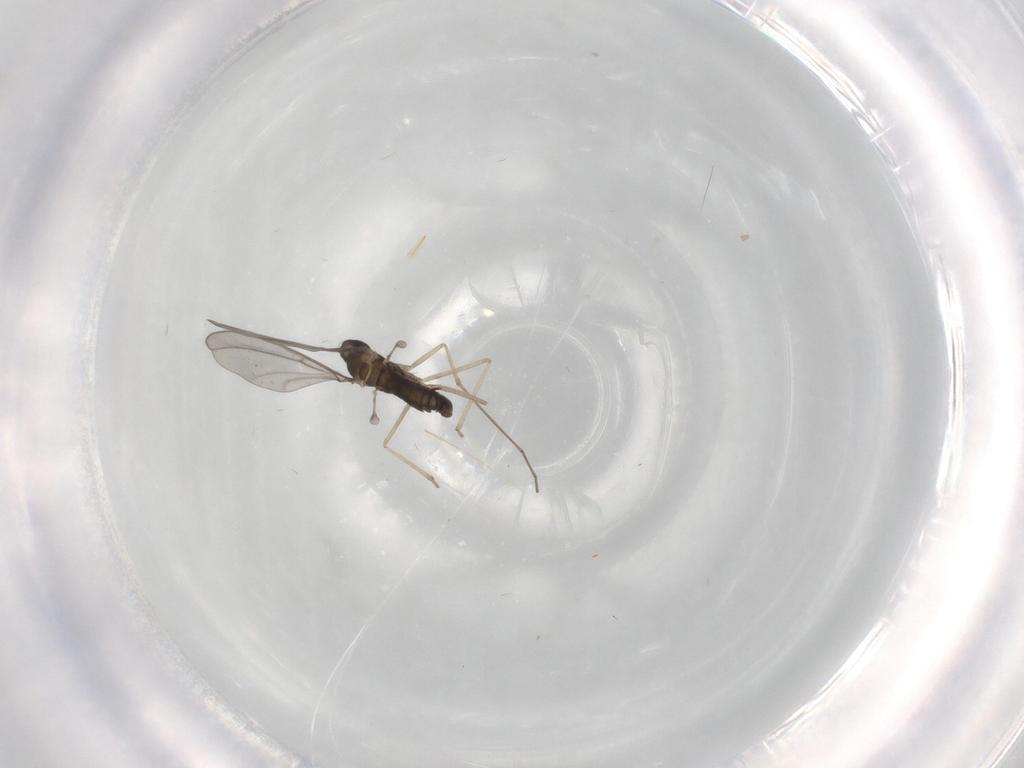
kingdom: Animalia
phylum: Arthropoda
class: Insecta
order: Diptera
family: Cecidomyiidae
